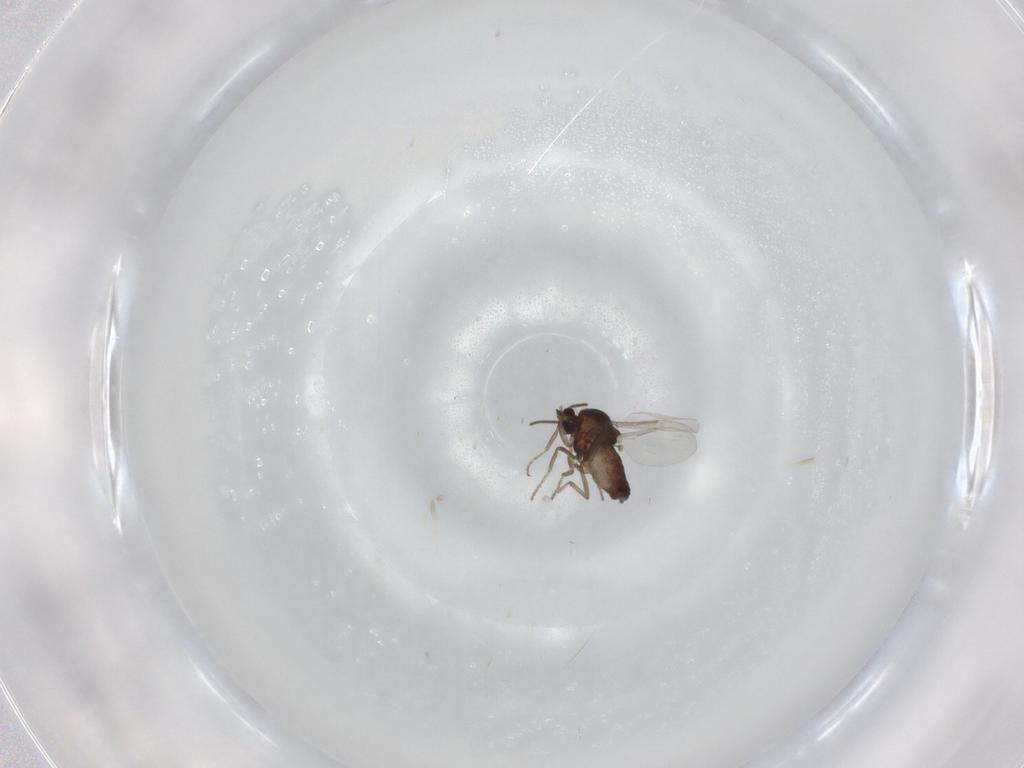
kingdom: Animalia
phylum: Arthropoda
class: Insecta
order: Diptera
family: Ceratopogonidae
